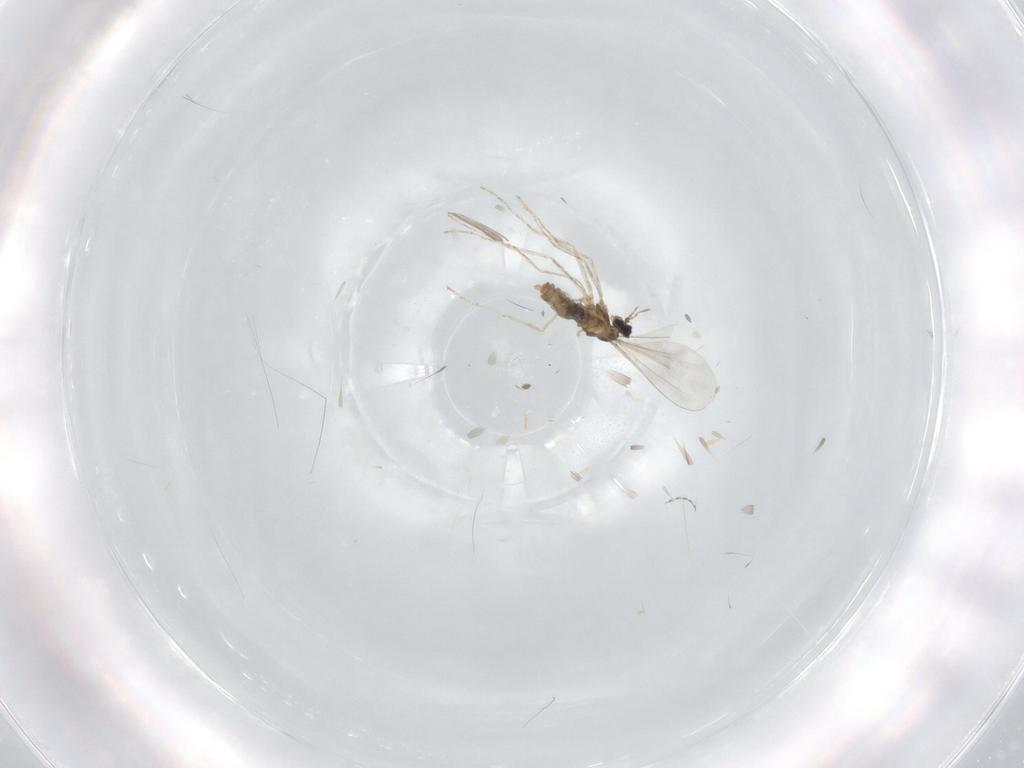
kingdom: Animalia
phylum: Arthropoda
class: Insecta
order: Diptera
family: Cecidomyiidae
